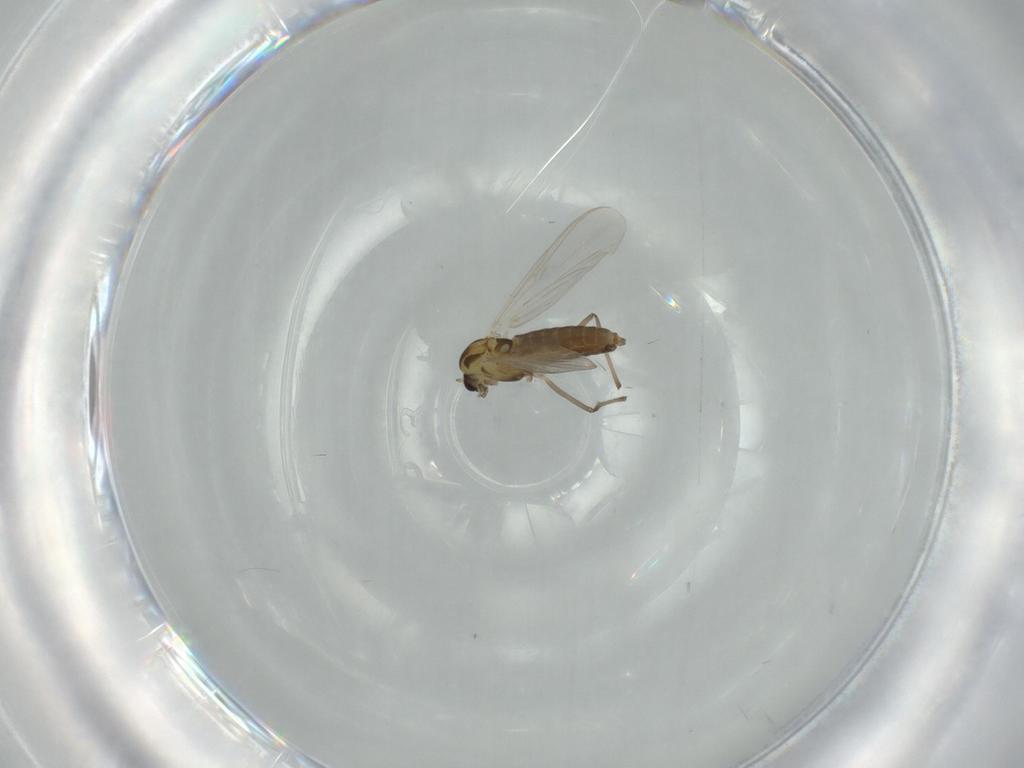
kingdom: Animalia
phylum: Arthropoda
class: Insecta
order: Diptera
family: Chironomidae
